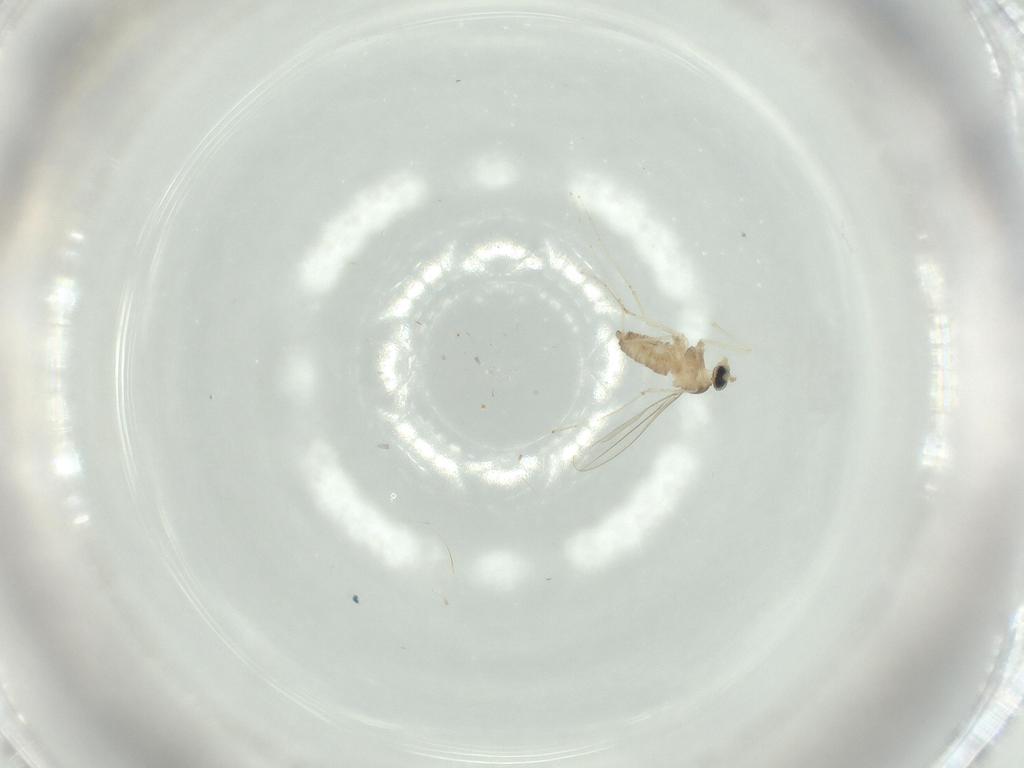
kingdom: Animalia
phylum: Arthropoda
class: Insecta
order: Diptera
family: Cecidomyiidae
